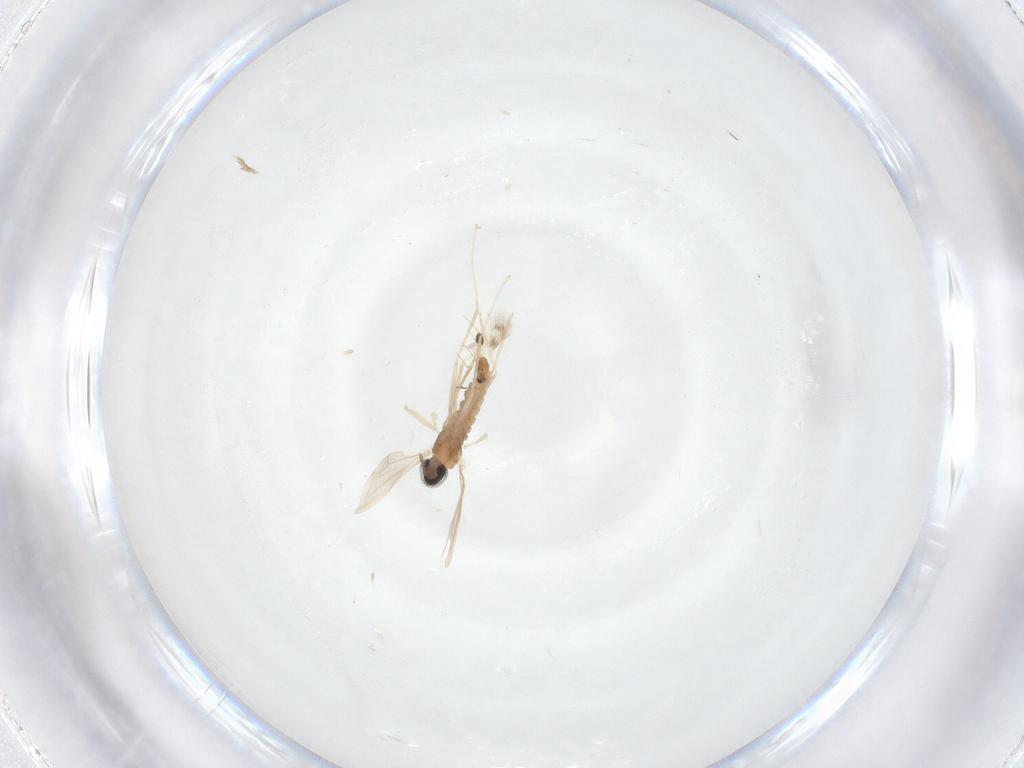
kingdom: Animalia
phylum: Arthropoda
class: Insecta
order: Diptera
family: Cecidomyiidae
